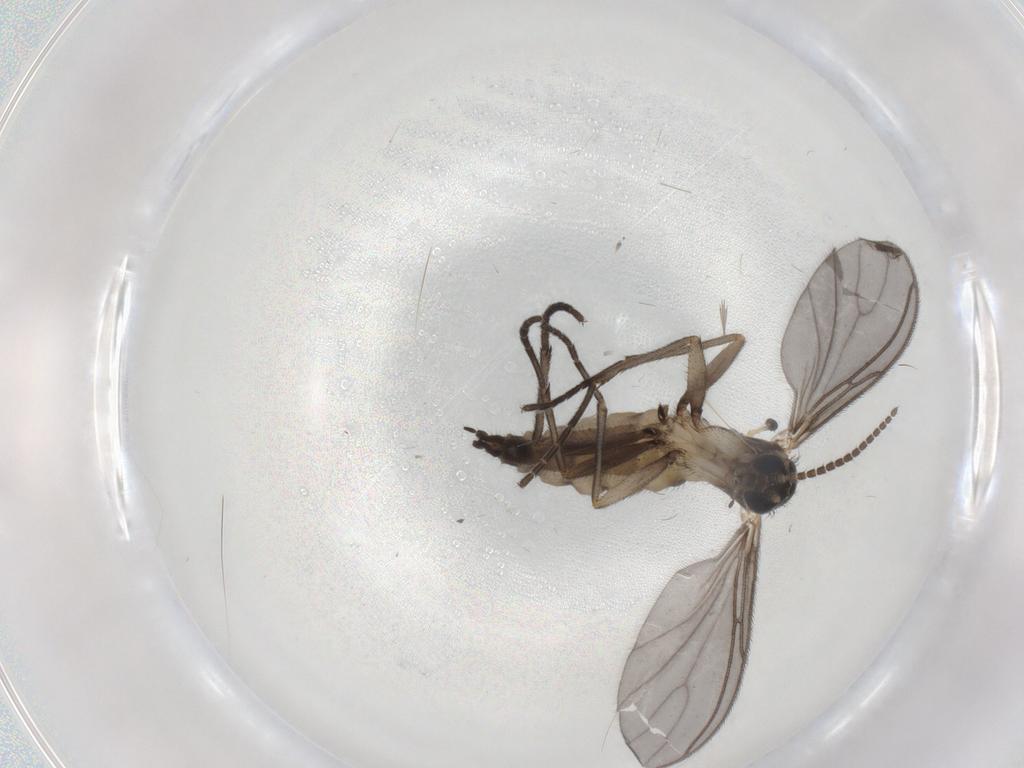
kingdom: Animalia
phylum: Arthropoda
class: Insecta
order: Diptera
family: Sciaridae
